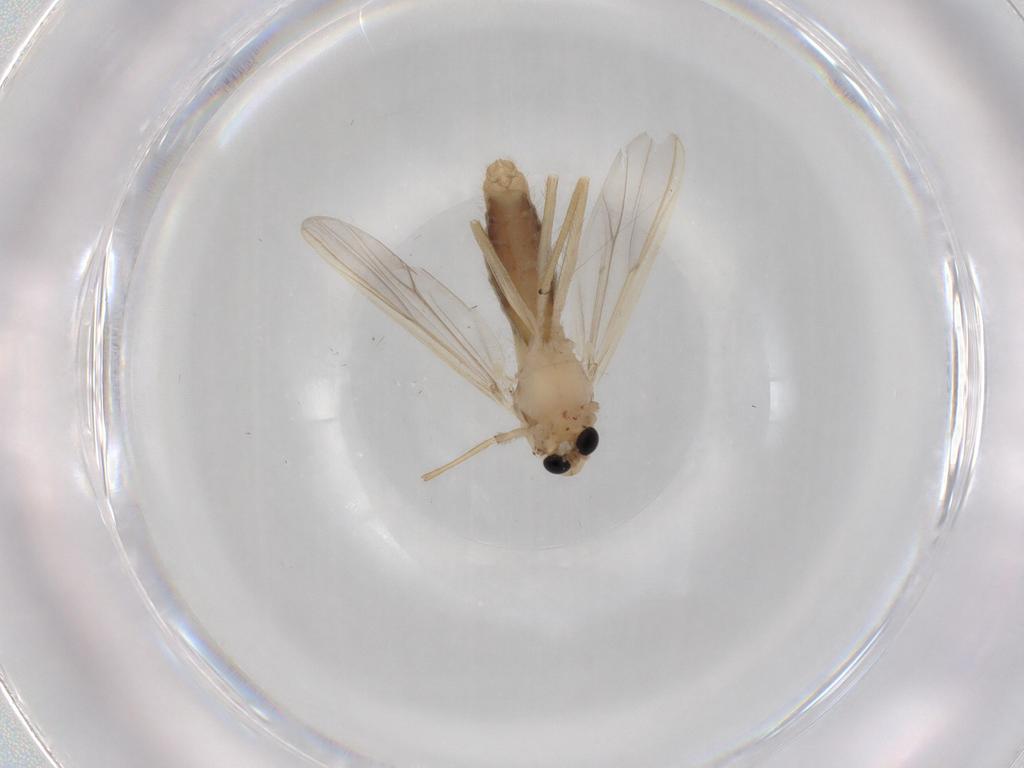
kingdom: Animalia
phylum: Arthropoda
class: Insecta
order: Diptera
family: Chironomidae
